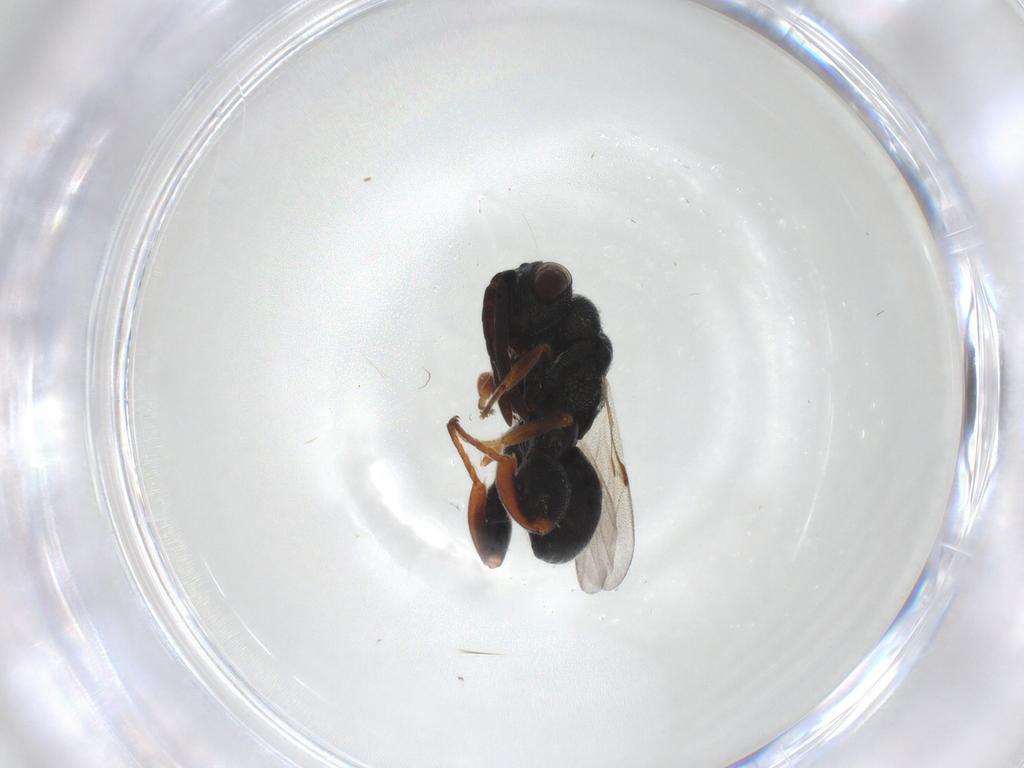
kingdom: Animalia
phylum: Arthropoda
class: Insecta
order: Hymenoptera
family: Chalcididae
